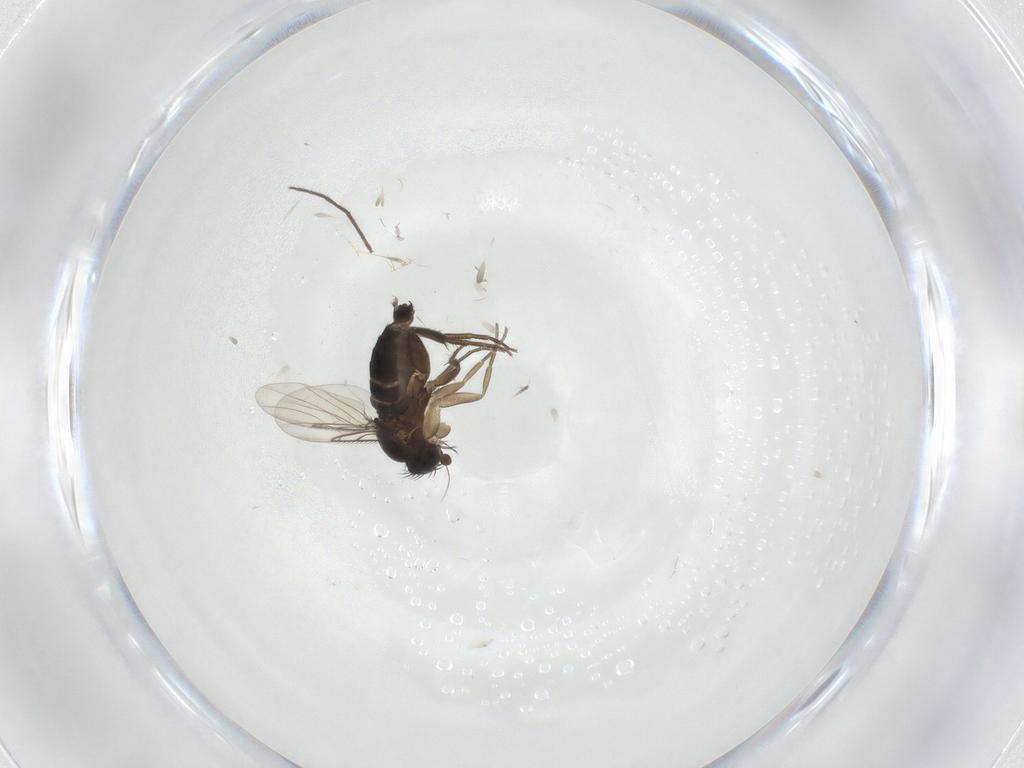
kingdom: Animalia
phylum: Arthropoda
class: Insecta
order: Diptera
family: Phoridae
